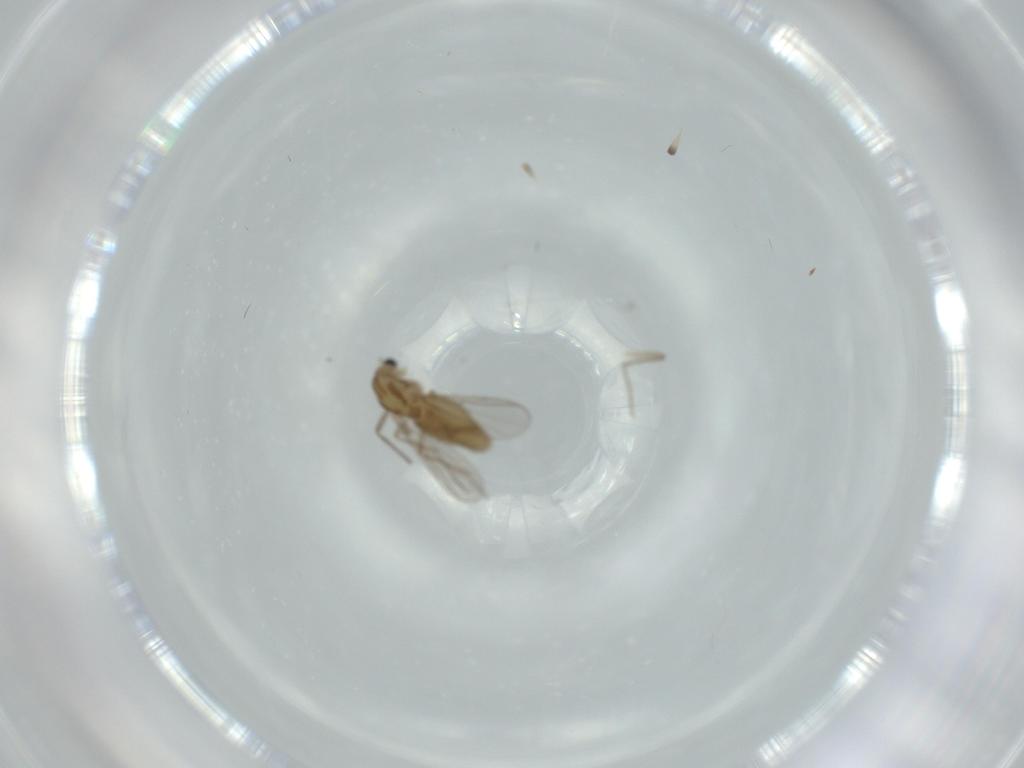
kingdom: Animalia
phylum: Arthropoda
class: Insecta
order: Diptera
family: Chironomidae
